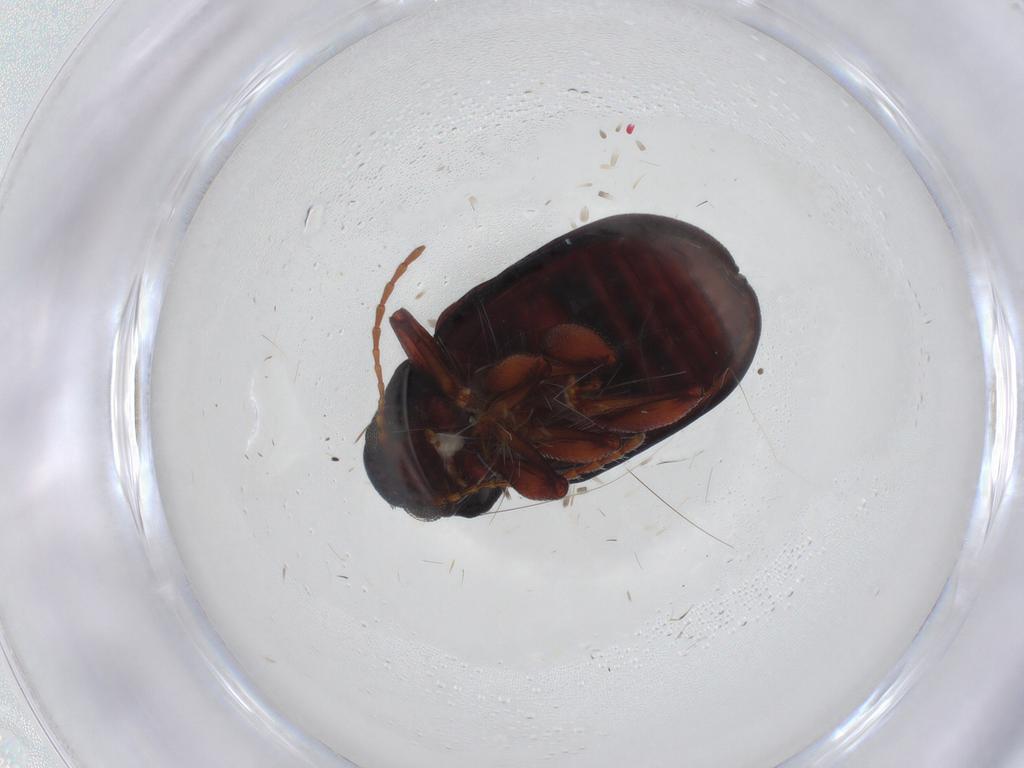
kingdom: Animalia
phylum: Arthropoda
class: Insecta
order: Coleoptera
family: Chrysomelidae
